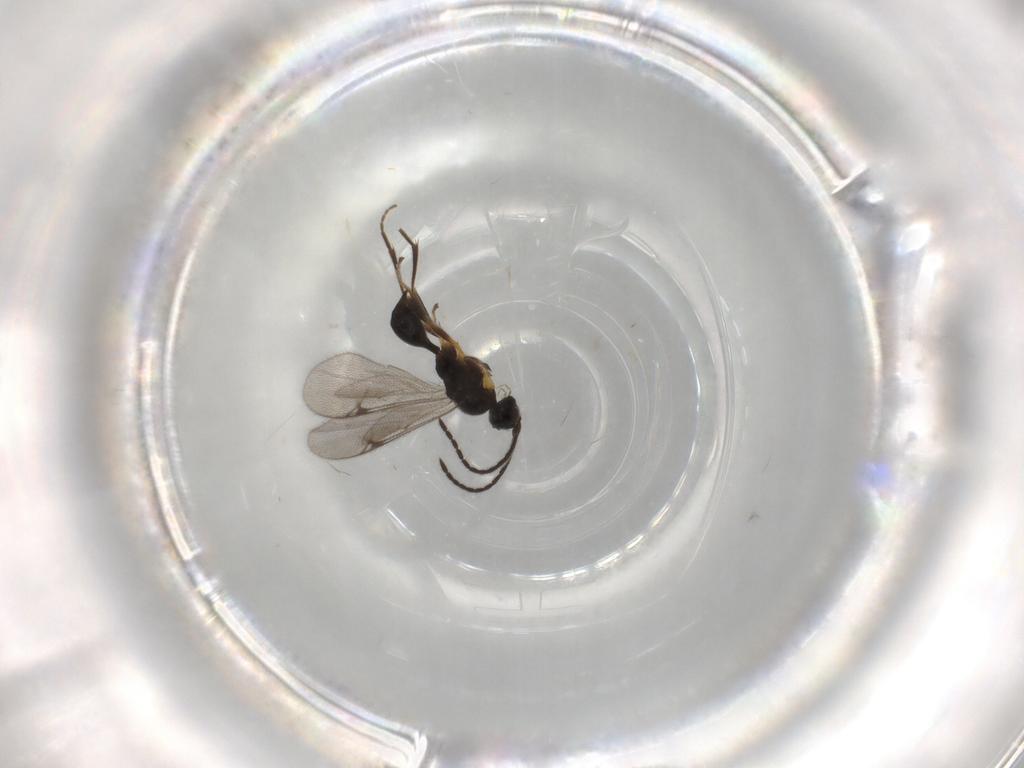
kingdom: Animalia
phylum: Arthropoda
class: Insecta
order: Hymenoptera
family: Proctotrupidae
